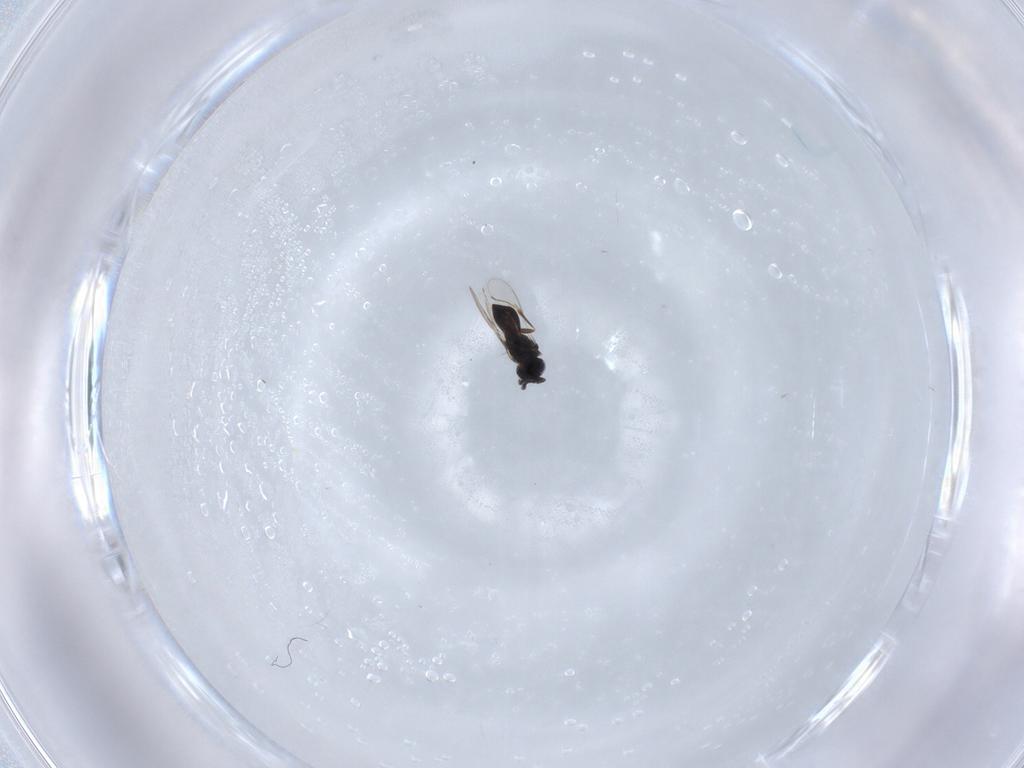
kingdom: Animalia
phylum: Arthropoda
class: Insecta
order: Hymenoptera
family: Scelionidae
